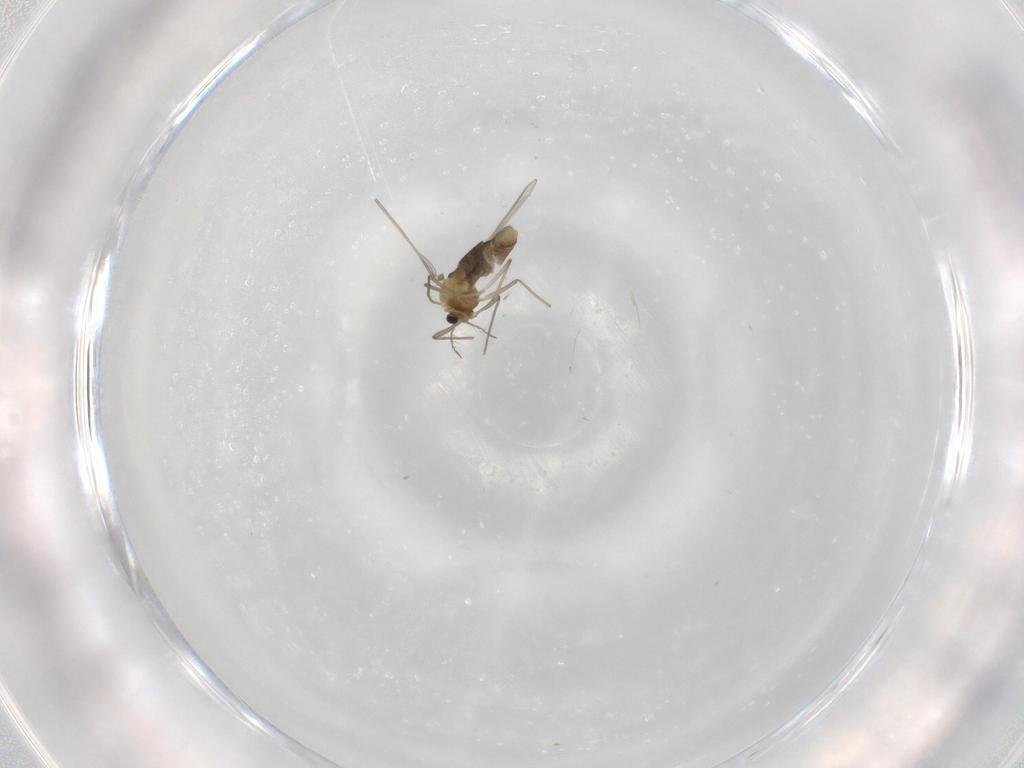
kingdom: Animalia
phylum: Arthropoda
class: Insecta
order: Diptera
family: Chironomidae
